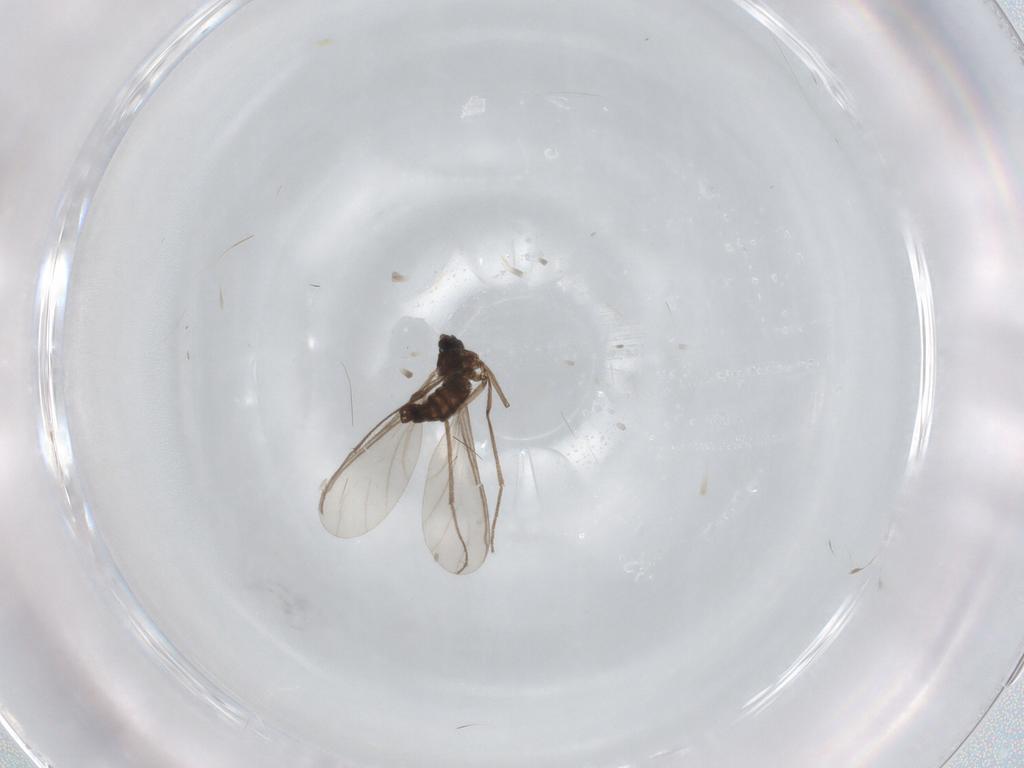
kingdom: Animalia
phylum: Arthropoda
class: Insecta
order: Diptera
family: Sciaridae
